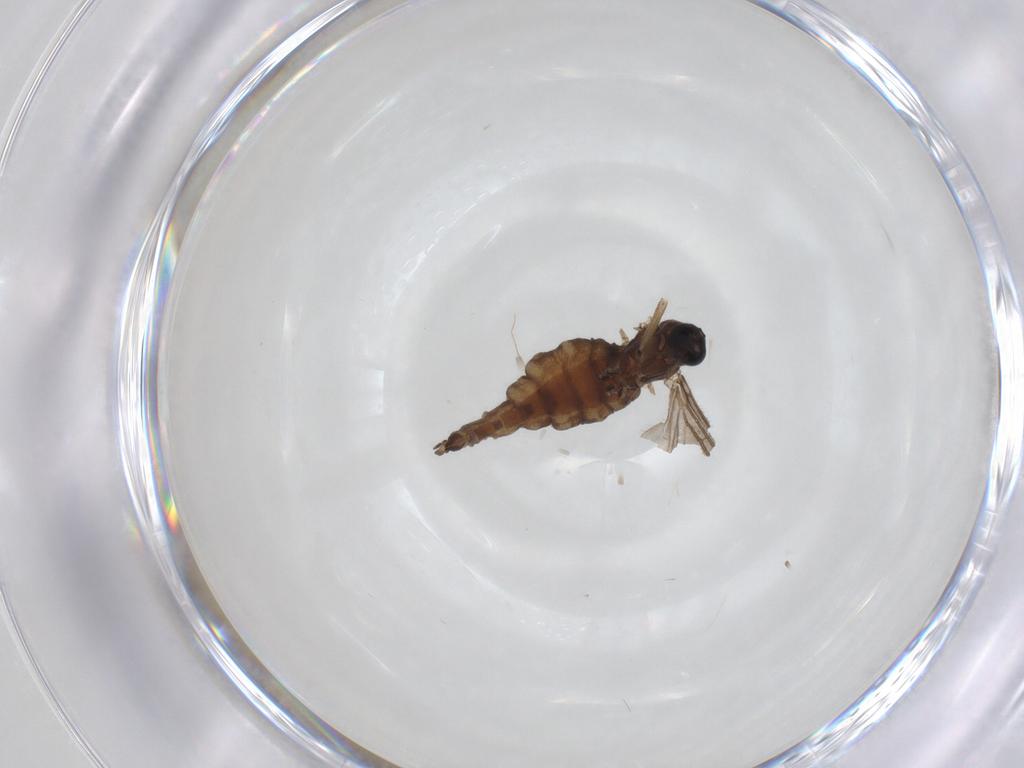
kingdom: Animalia
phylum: Arthropoda
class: Insecta
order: Diptera
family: Sciaridae
